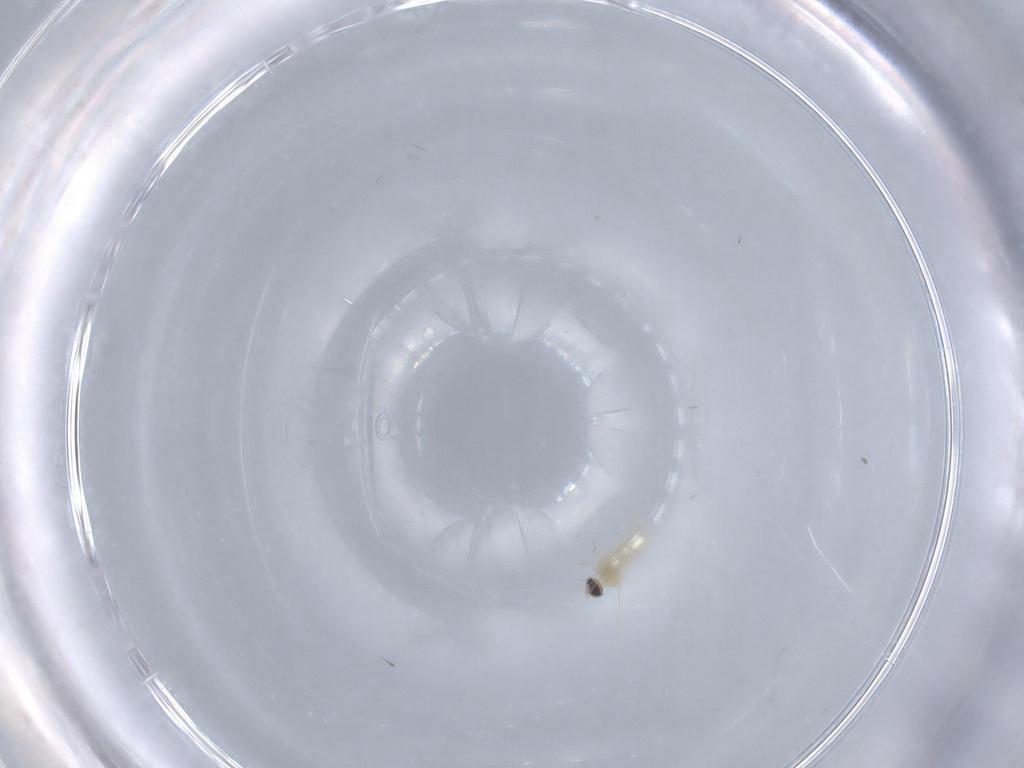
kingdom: Animalia
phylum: Arthropoda
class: Insecta
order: Diptera
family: Cecidomyiidae
